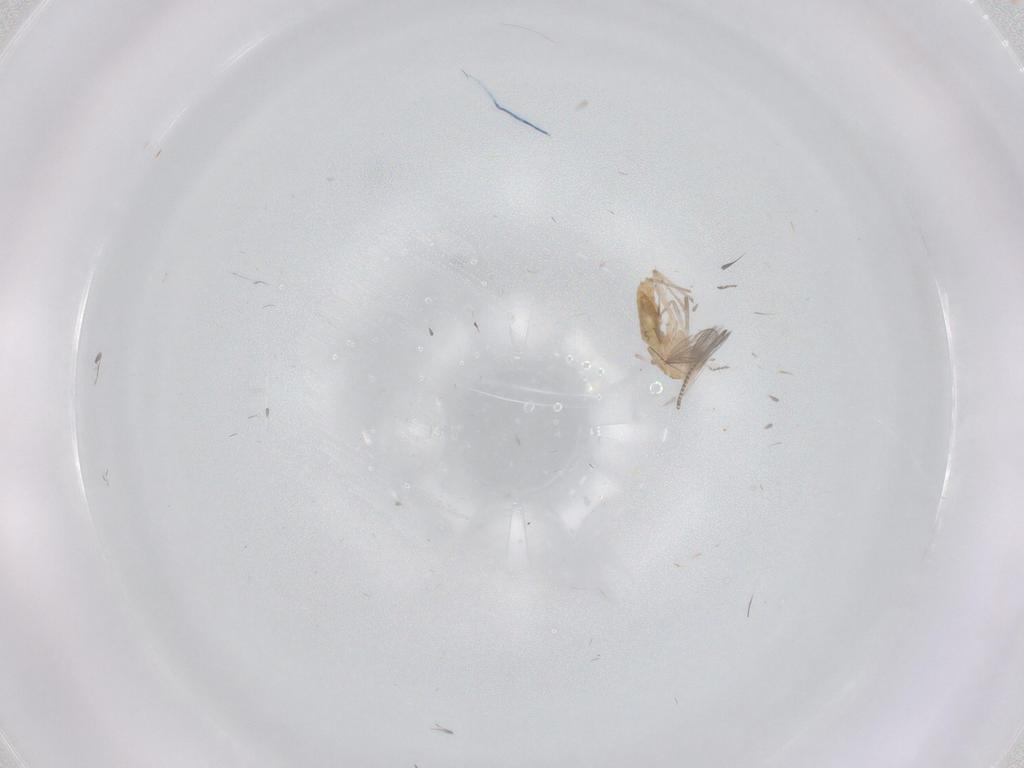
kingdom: Animalia
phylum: Arthropoda
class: Insecta
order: Diptera
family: Chironomidae
